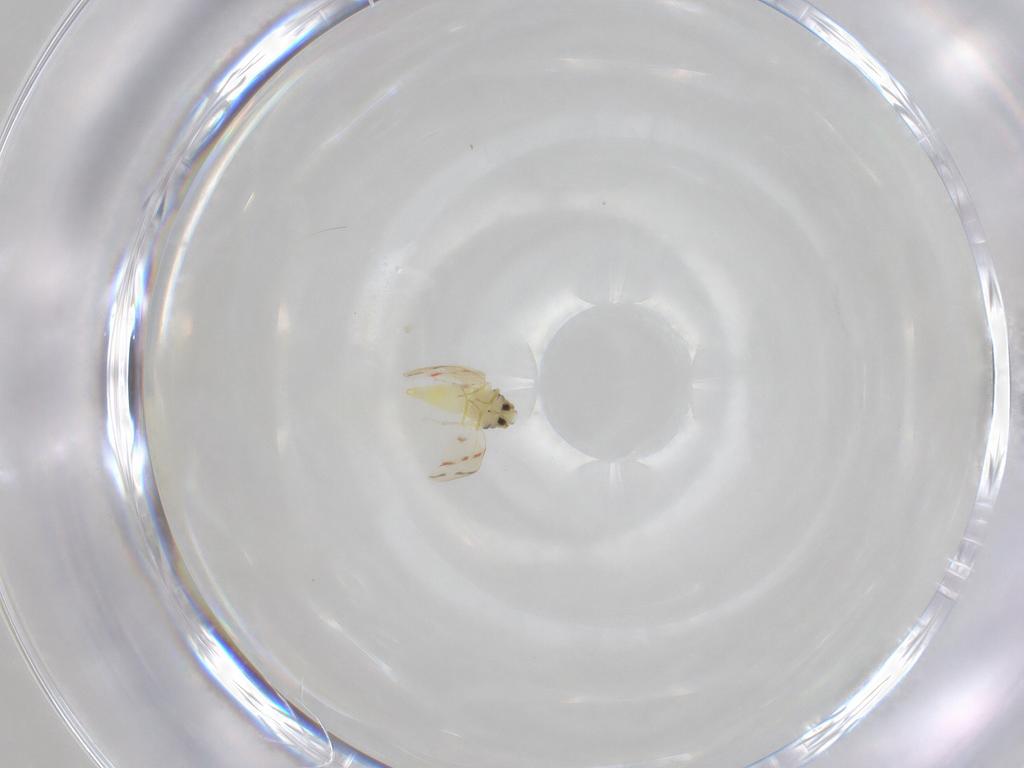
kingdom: Animalia
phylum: Arthropoda
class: Insecta
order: Hemiptera
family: Aleyrodidae
